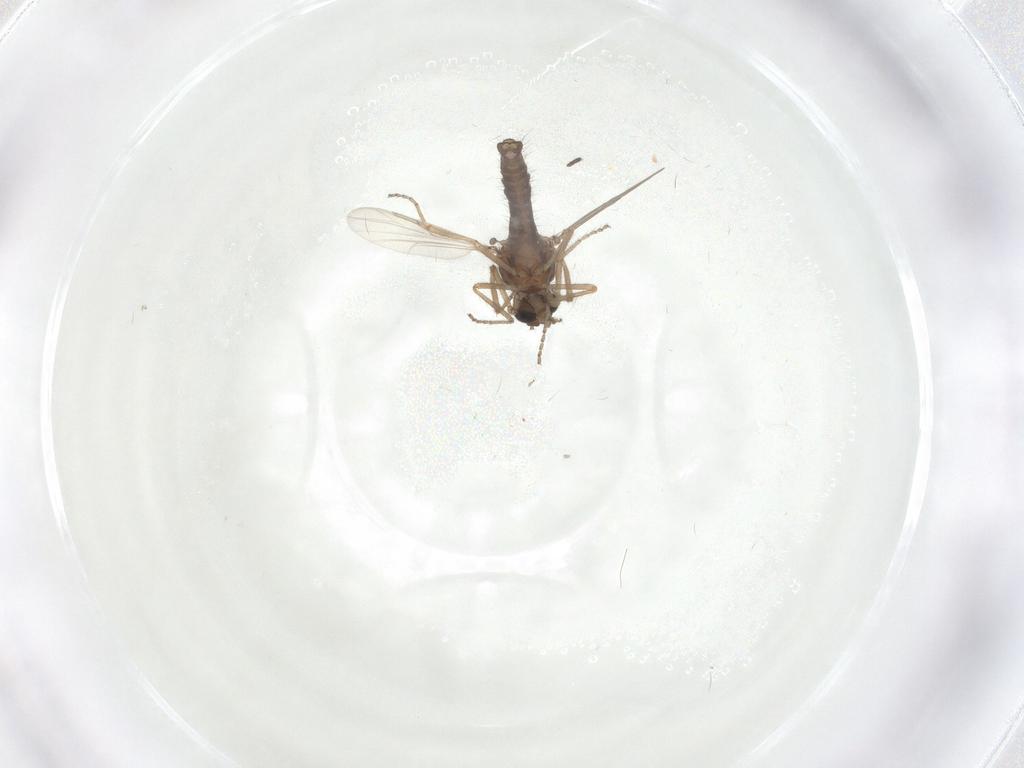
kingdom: Animalia
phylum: Arthropoda
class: Insecta
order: Diptera
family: Ceratopogonidae
